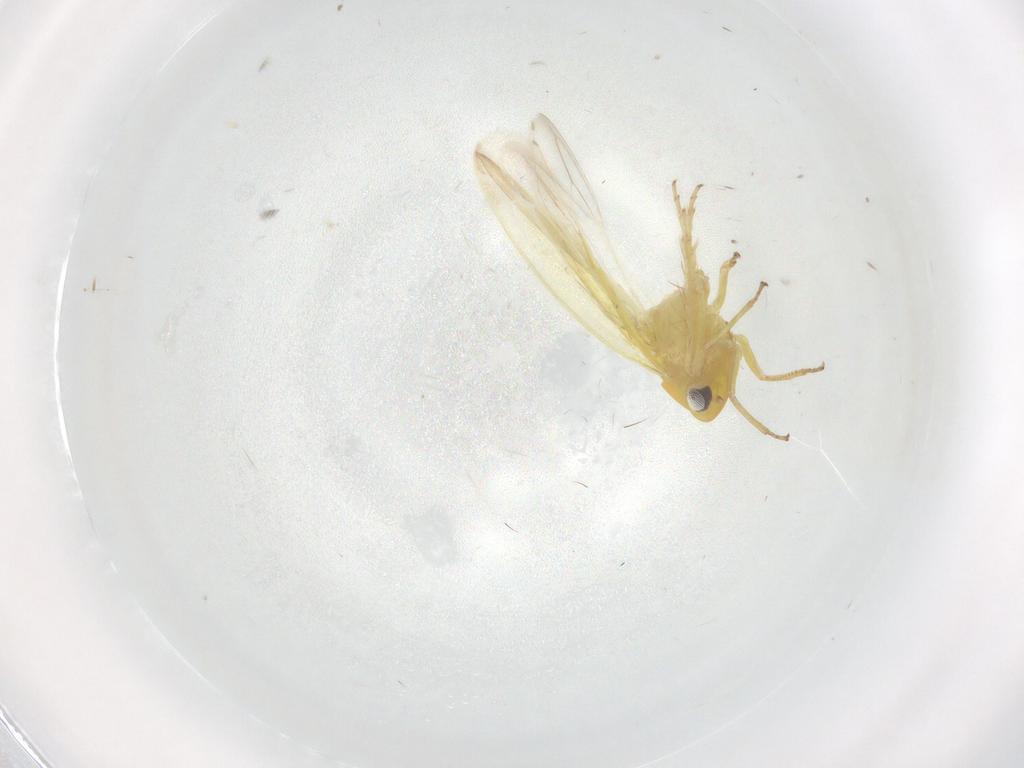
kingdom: Animalia
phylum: Arthropoda
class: Insecta
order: Hemiptera
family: Cicadellidae
